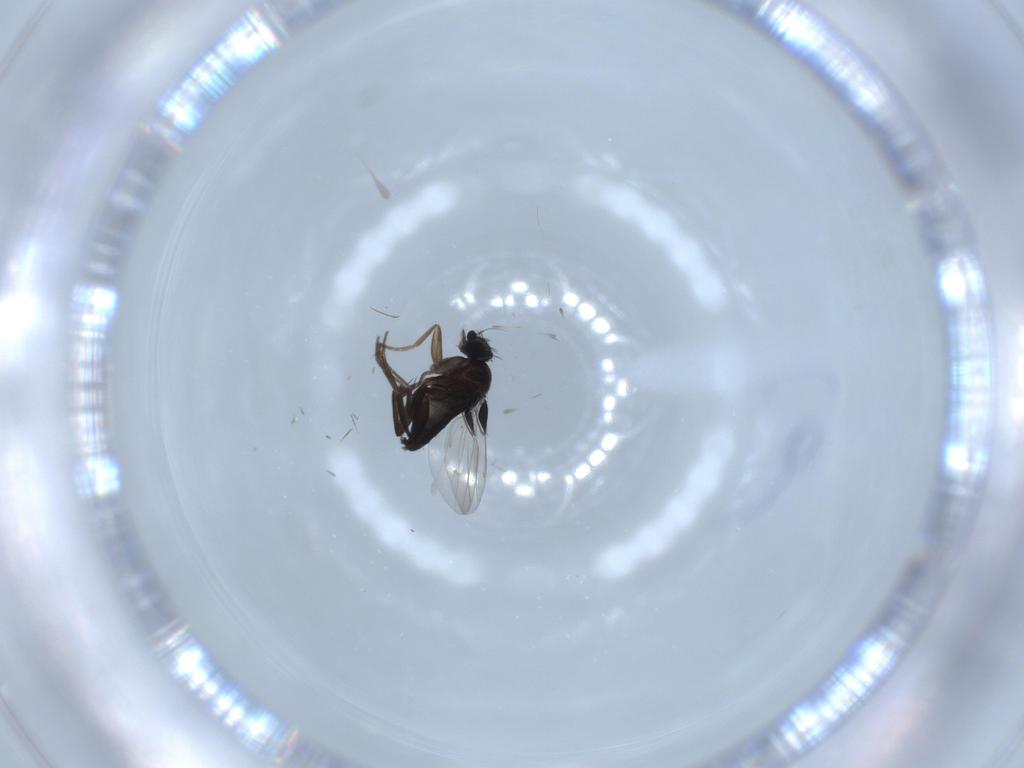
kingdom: Animalia
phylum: Arthropoda
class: Insecta
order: Diptera
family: Phoridae
